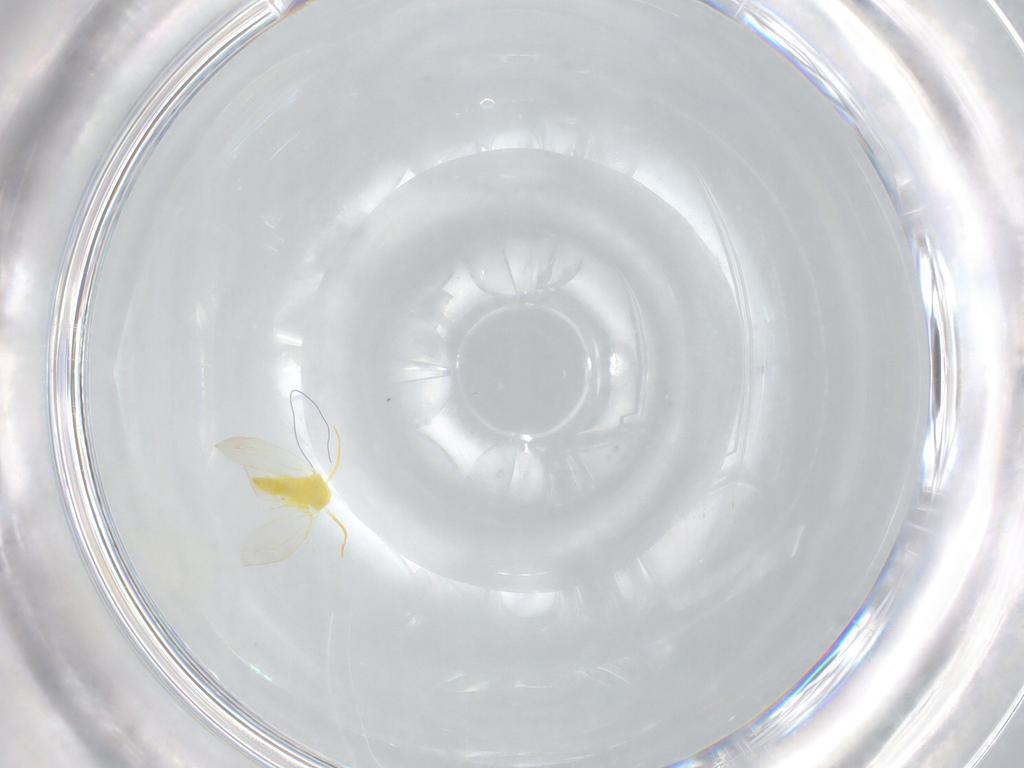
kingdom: Animalia
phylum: Arthropoda
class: Insecta
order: Hemiptera
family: Aleyrodidae
